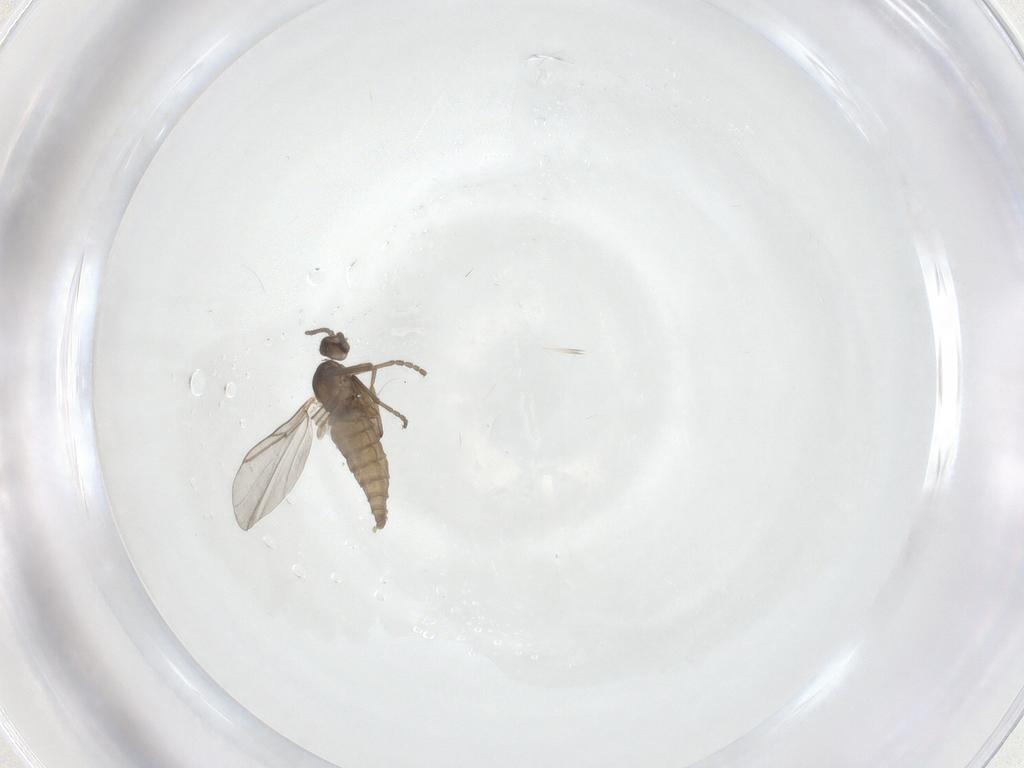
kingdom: Animalia
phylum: Arthropoda
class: Insecta
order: Diptera
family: Cecidomyiidae
